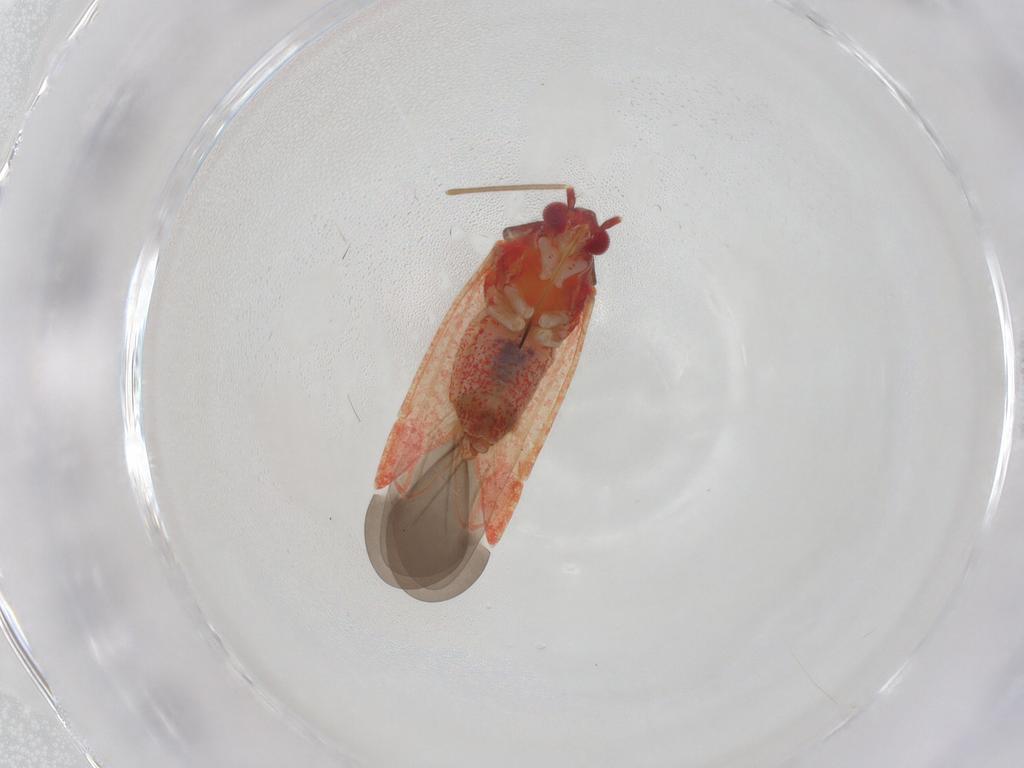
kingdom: Animalia
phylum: Arthropoda
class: Insecta
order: Hemiptera
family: Miridae
